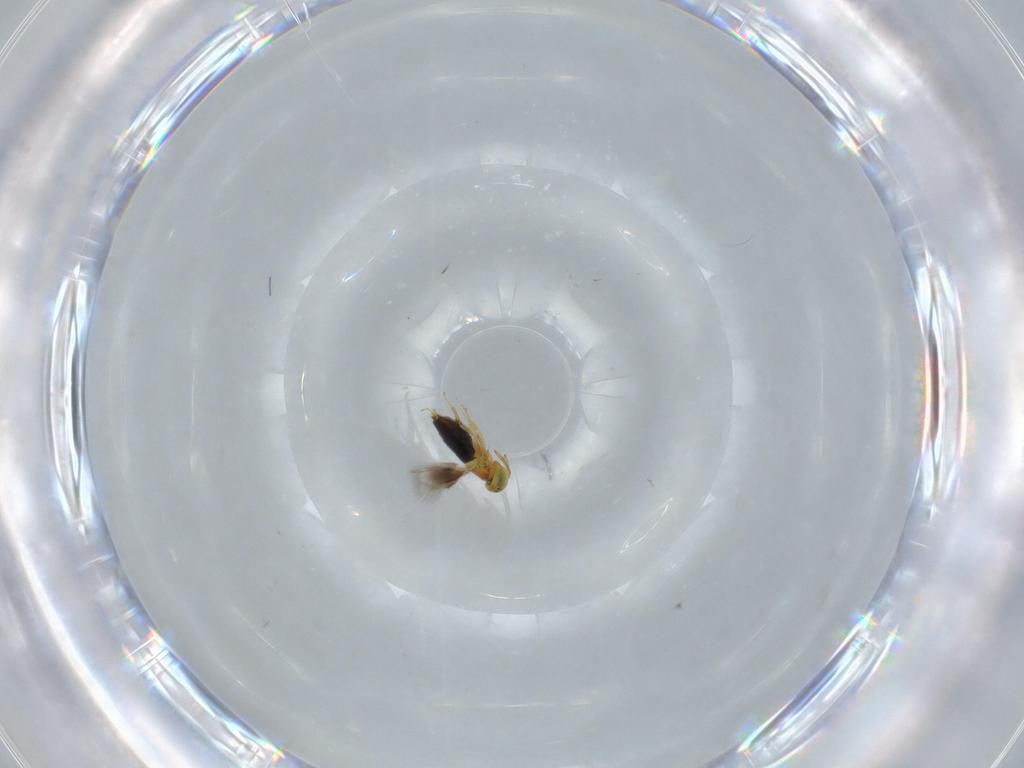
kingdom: Animalia
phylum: Arthropoda
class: Insecta
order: Hymenoptera
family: Signiphoridae
